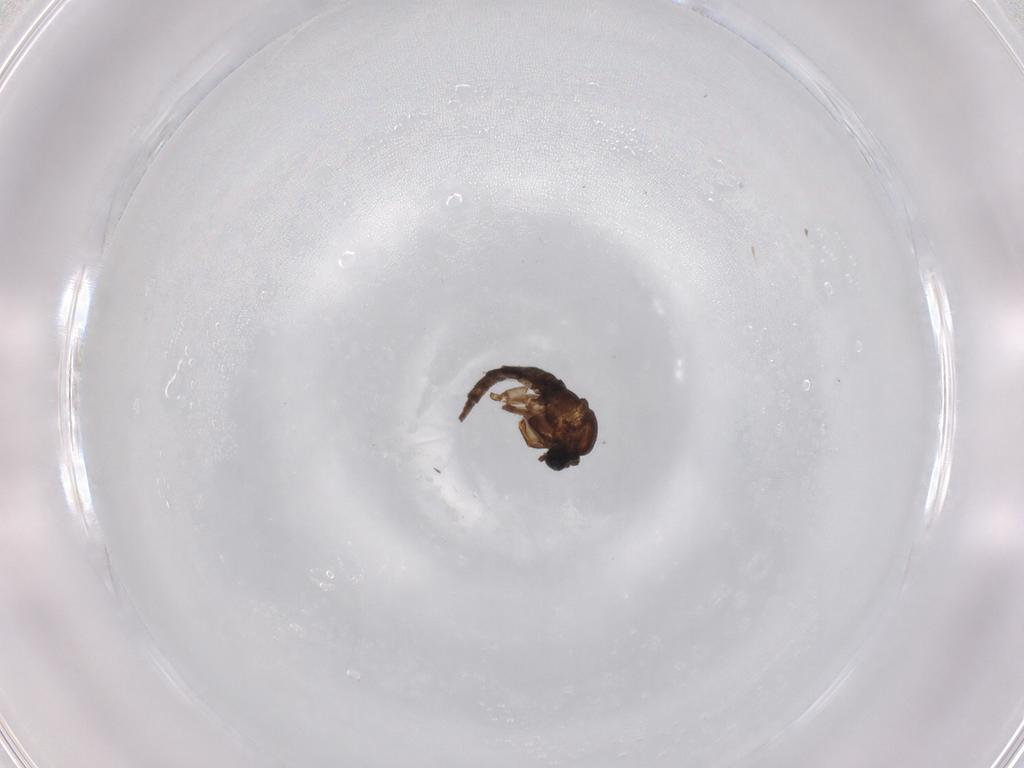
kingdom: Animalia
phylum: Arthropoda
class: Insecta
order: Diptera
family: Sciaridae
